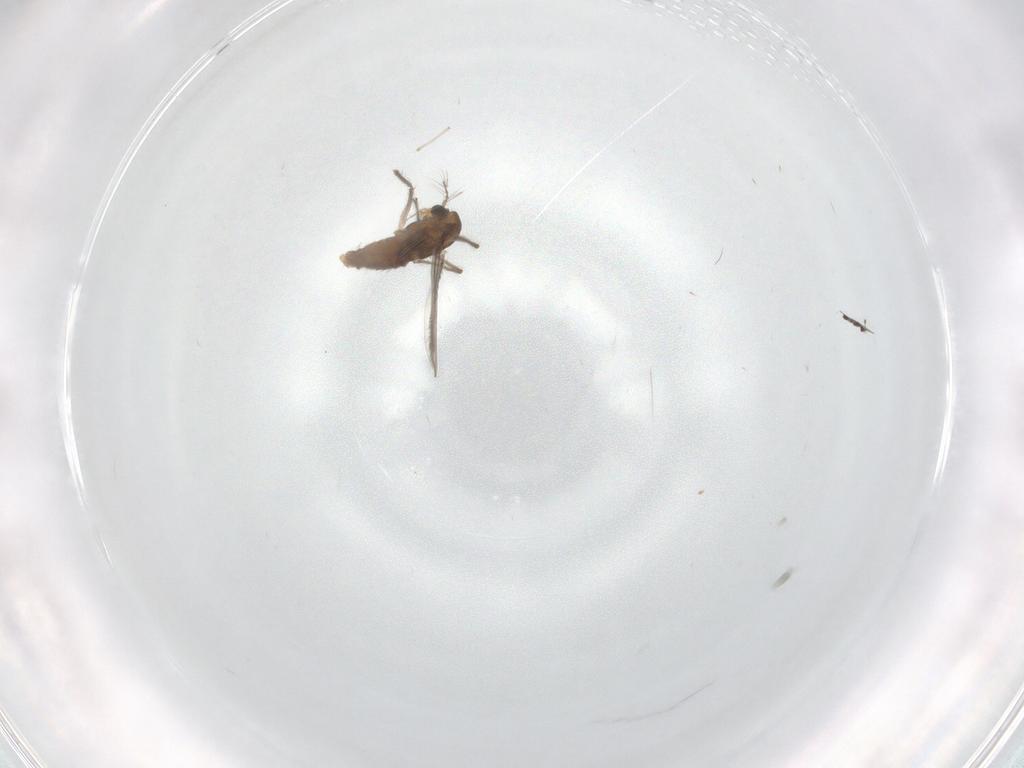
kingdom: Animalia
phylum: Arthropoda
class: Insecta
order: Diptera
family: Chironomidae
